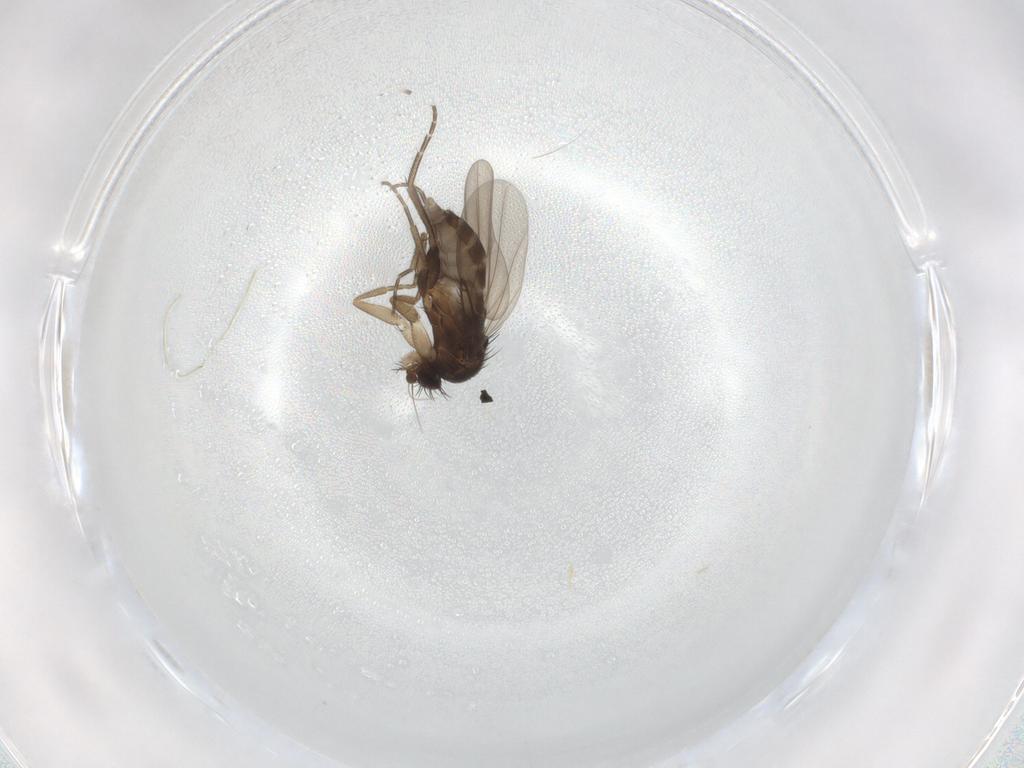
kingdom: Animalia
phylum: Arthropoda
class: Insecta
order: Diptera
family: Phoridae
